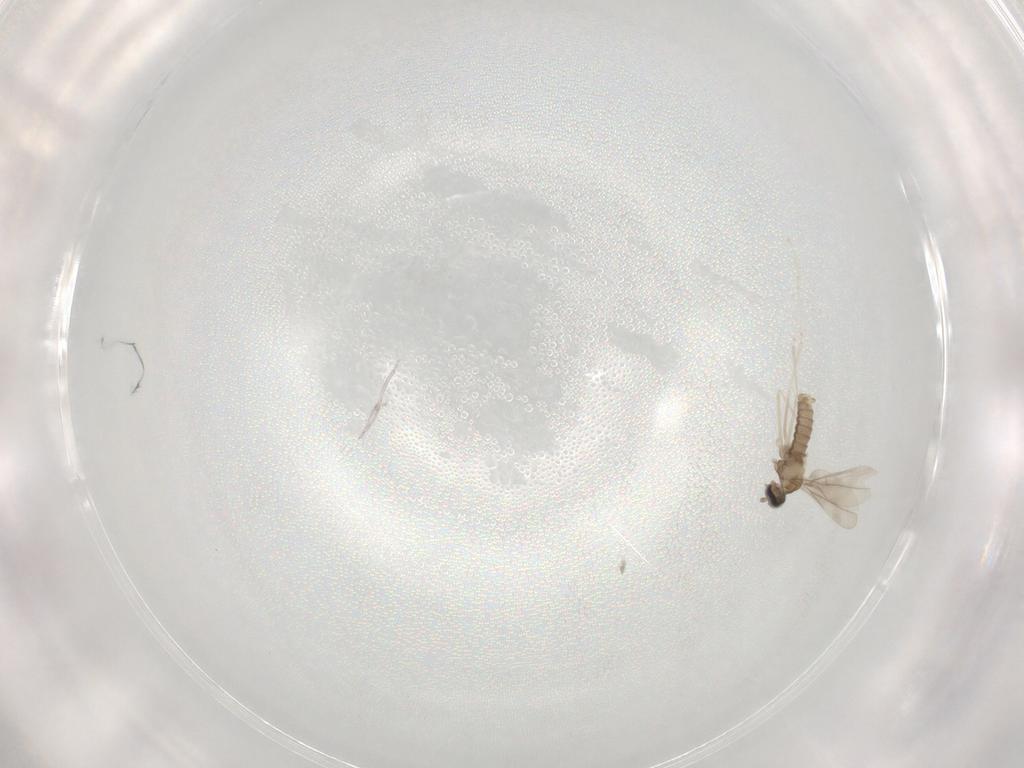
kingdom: Animalia
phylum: Arthropoda
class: Insecta
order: Diptera
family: Cecidomyiidae
